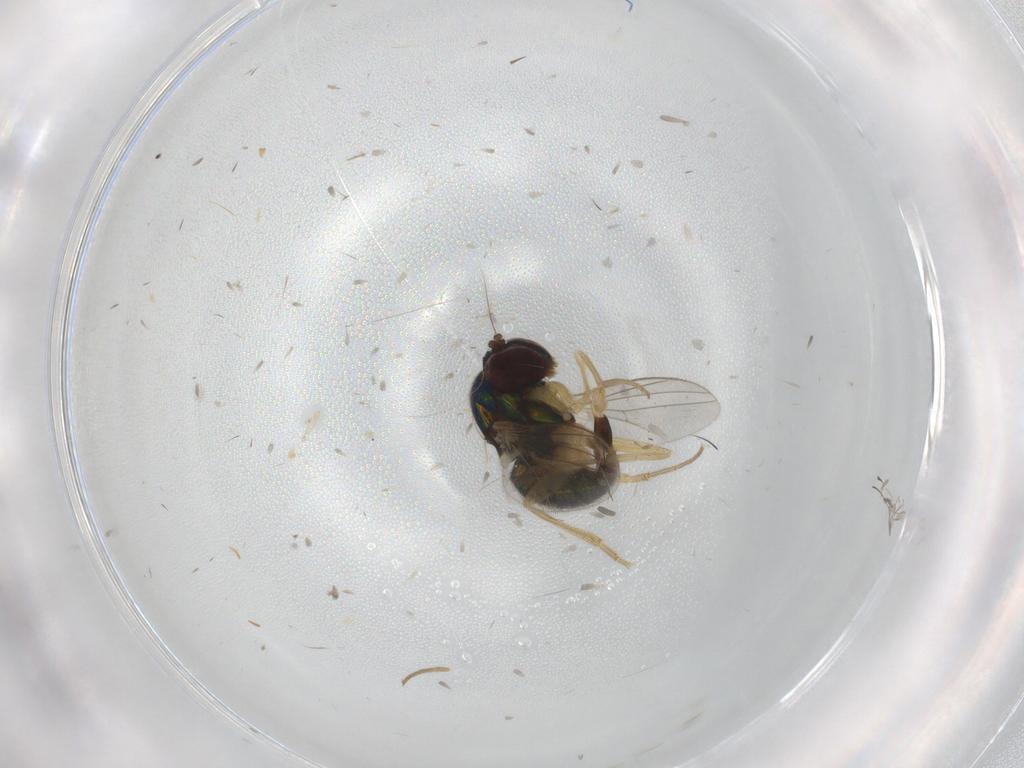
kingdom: Animalia
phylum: Arthropoda
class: Insecta
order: Diptera
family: Dolichopodidae
